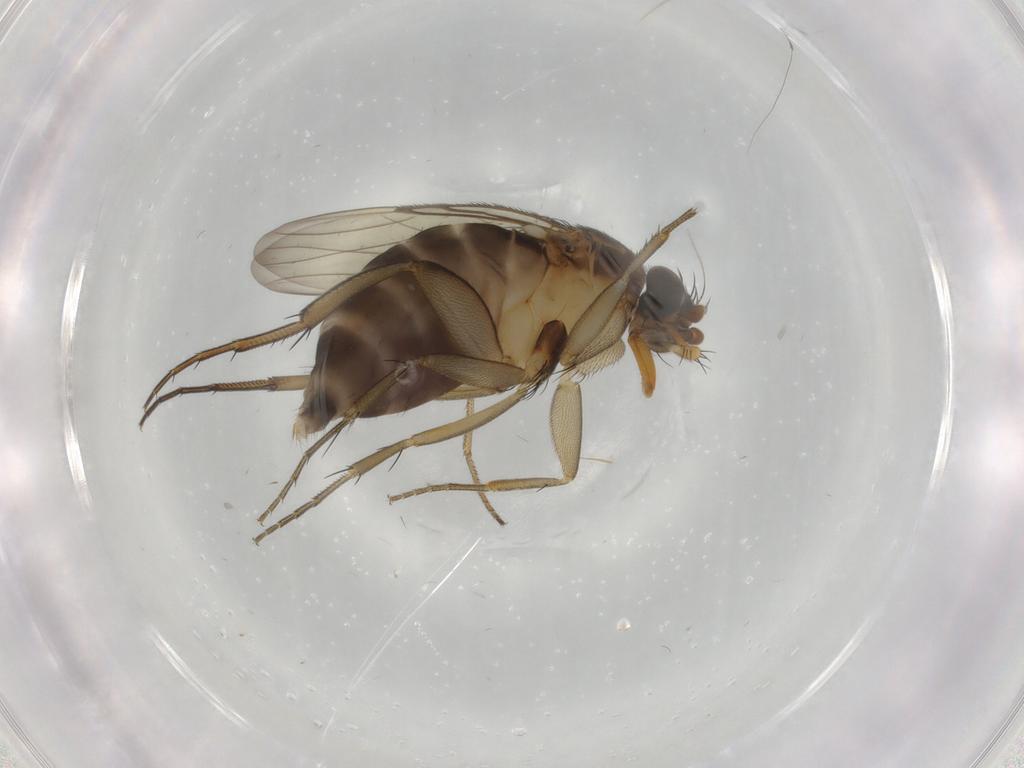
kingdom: Animalia
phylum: Arthropoda
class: Insecta
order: Diptera
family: Phoridae
